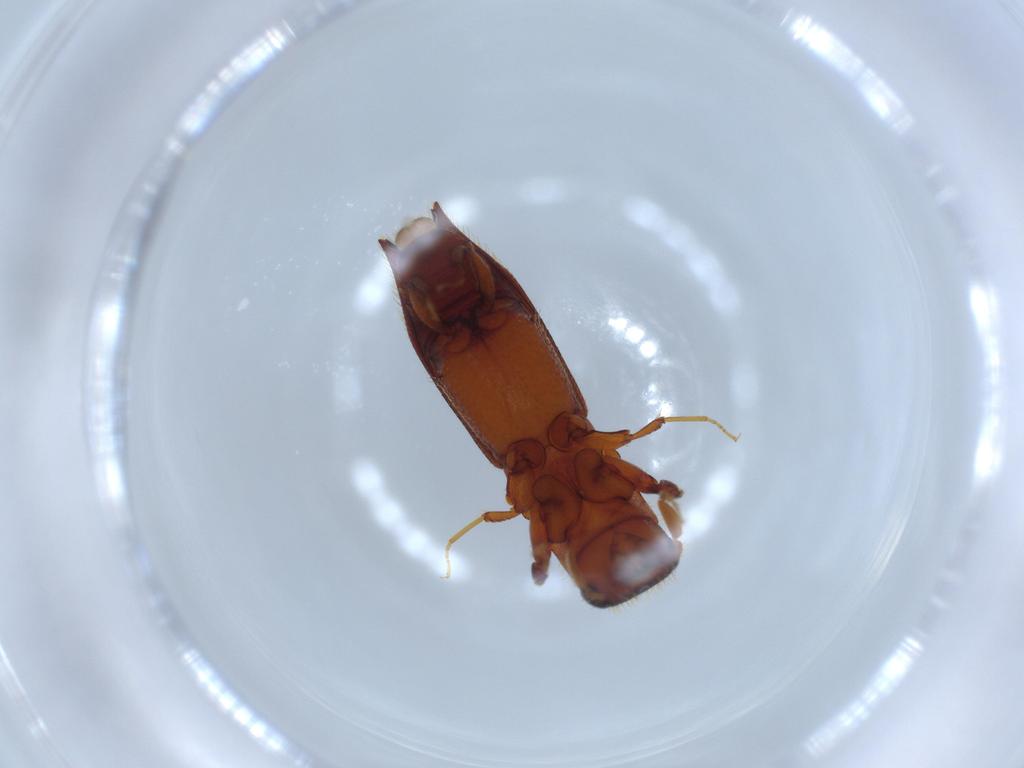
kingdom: Animalia
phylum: Arthropoda
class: Insecta
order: Coleoptera
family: Curculionidae
